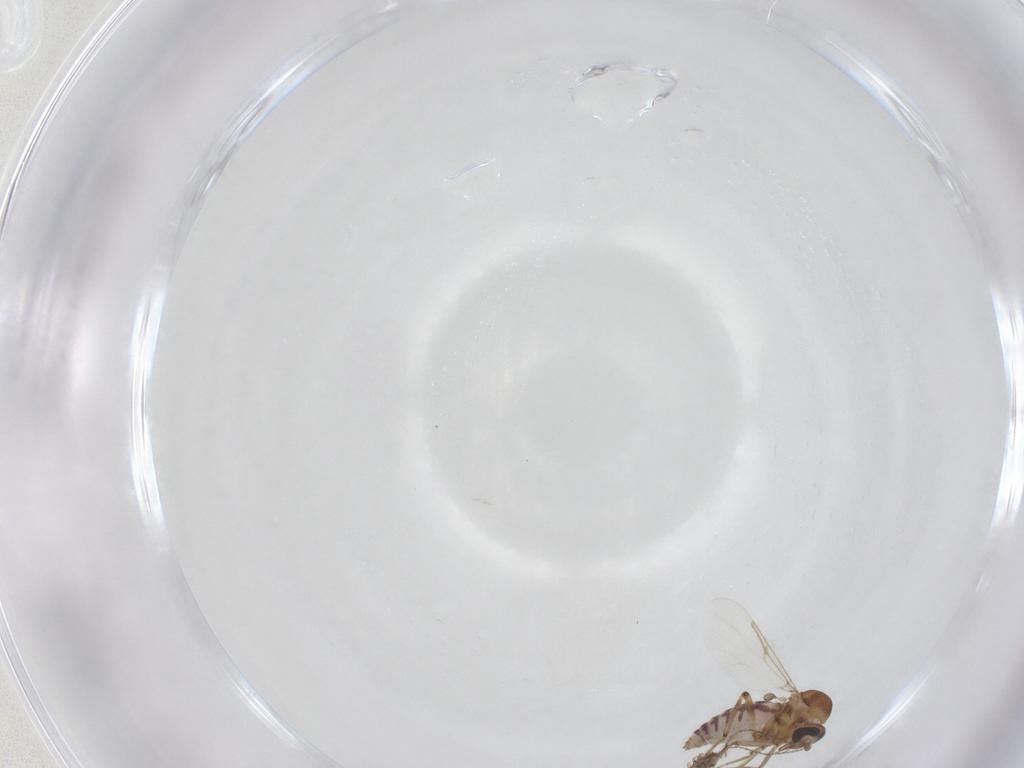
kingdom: Animalia
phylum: Arthropoda
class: Insecta
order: Diptera
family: Ceratopogonidae
